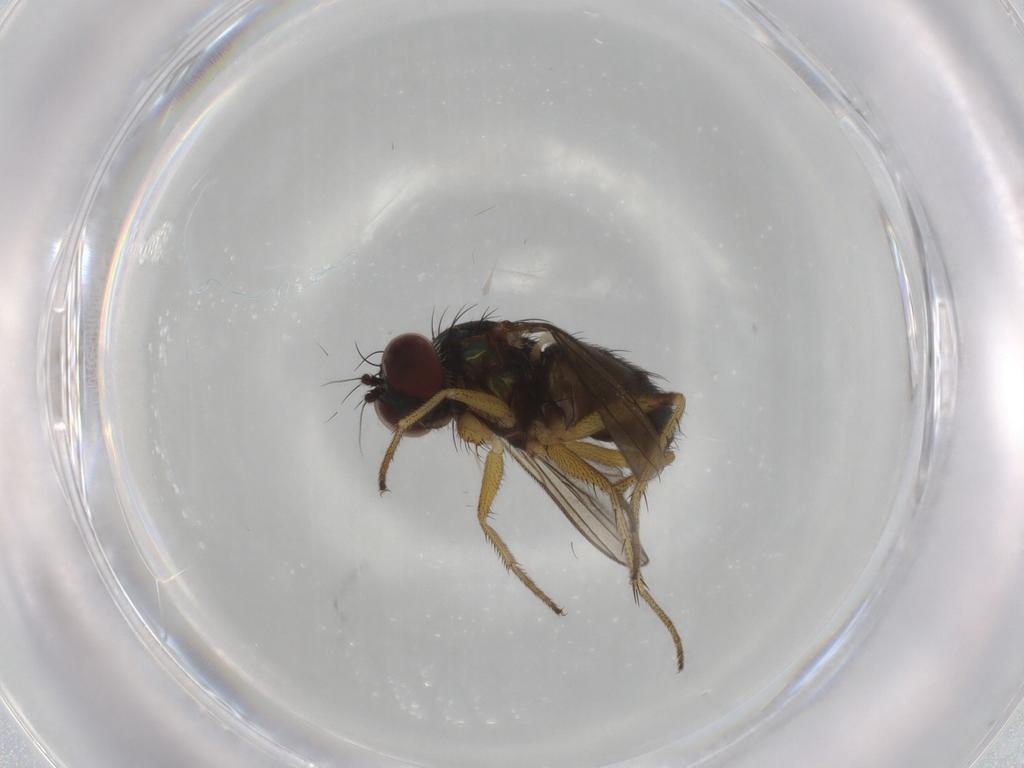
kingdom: Animalia
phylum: Arthropoda
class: Insecta
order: Diptera
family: Dolichopodidae
